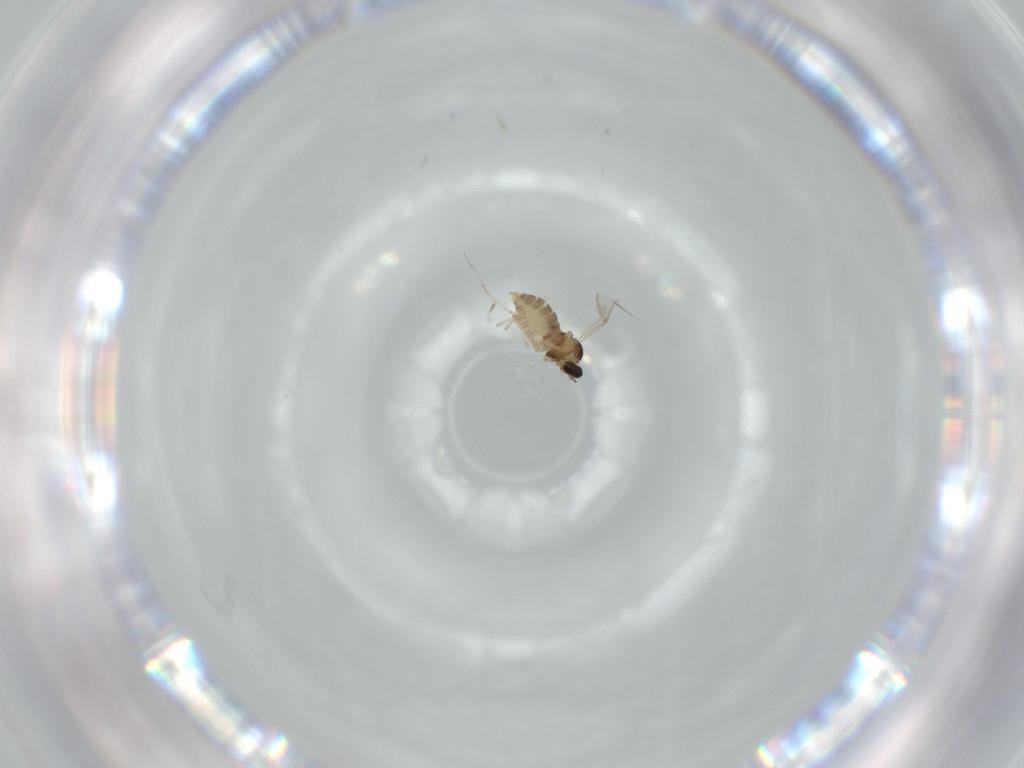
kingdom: Animalia
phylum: Arthropoda
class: Insecta
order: Diptera
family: Cecidomyiidae
